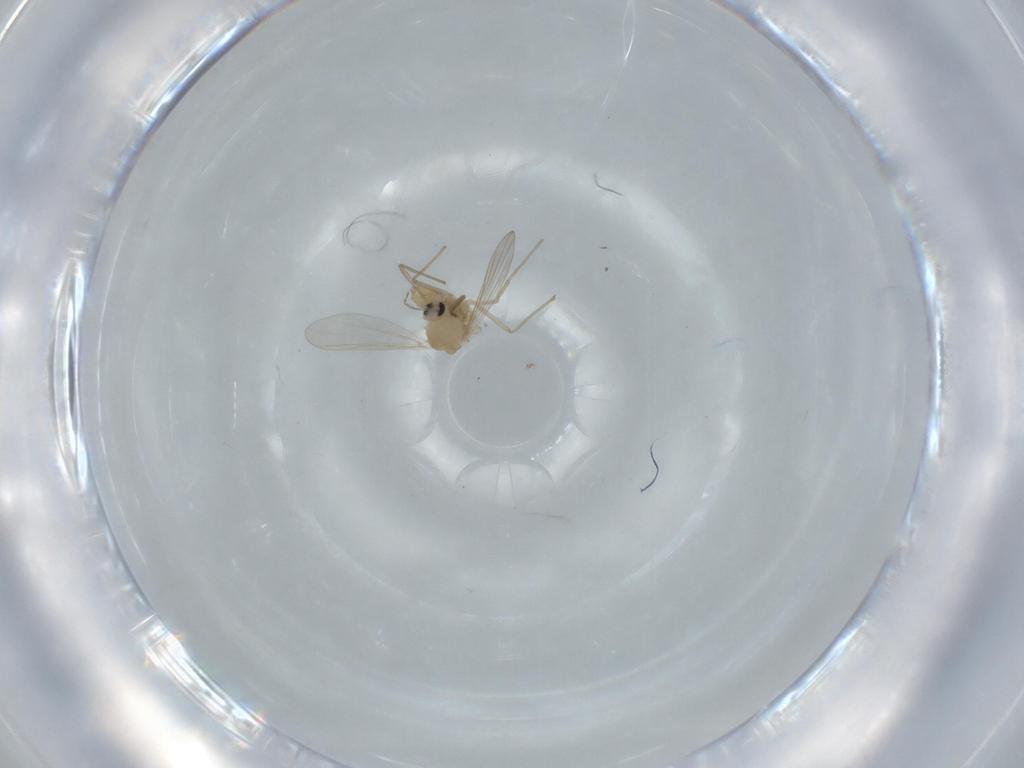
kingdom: Animalia
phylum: Arthropoda
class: Insecta
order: Diptera
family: Chironomidae
